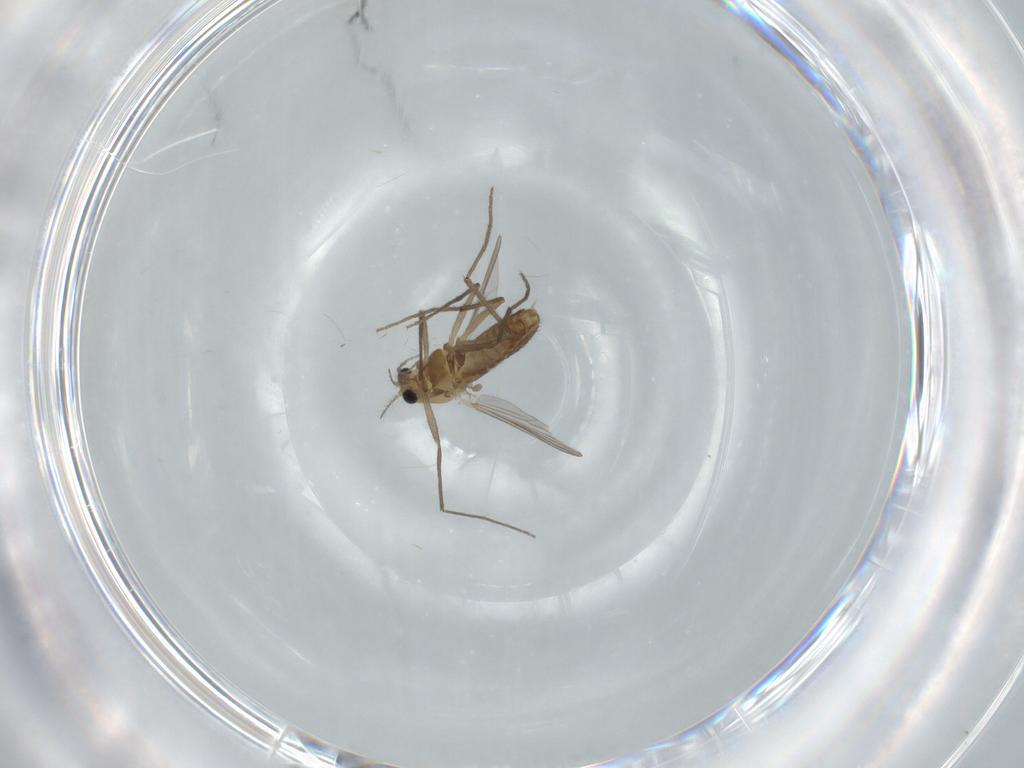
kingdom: Animalia
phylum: Arthropoda
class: Insecta
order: Diptera
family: Chironomidae
